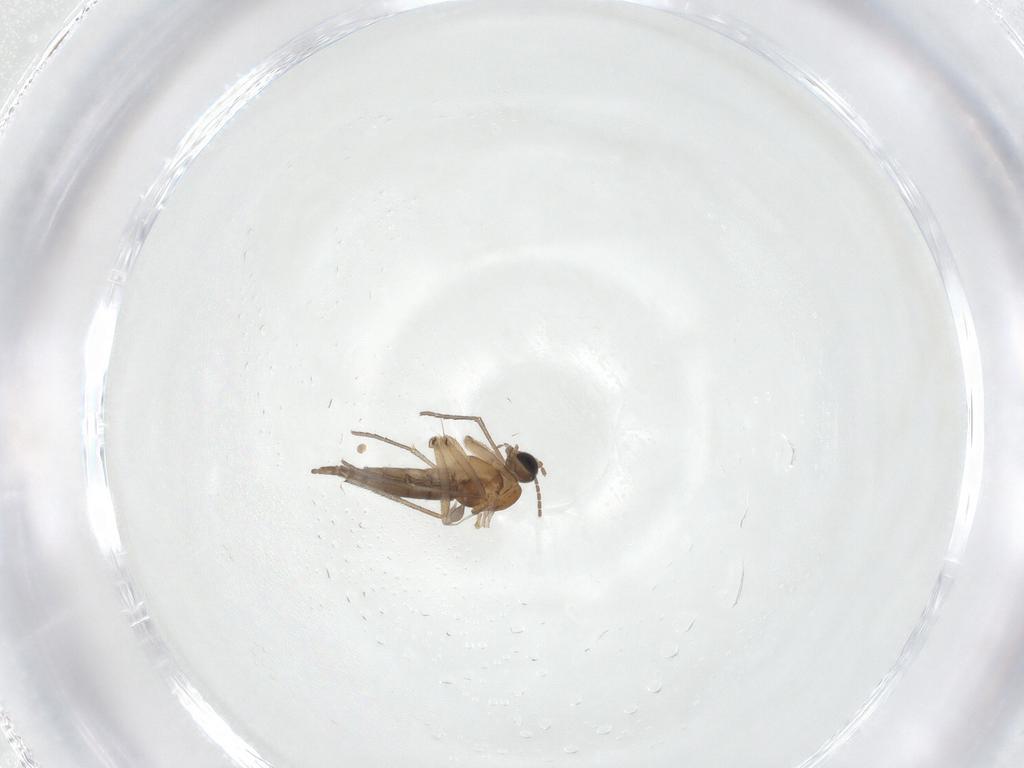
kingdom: Animalia
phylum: Arthropoda
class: Insecta
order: Diptera
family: Sciaridae
